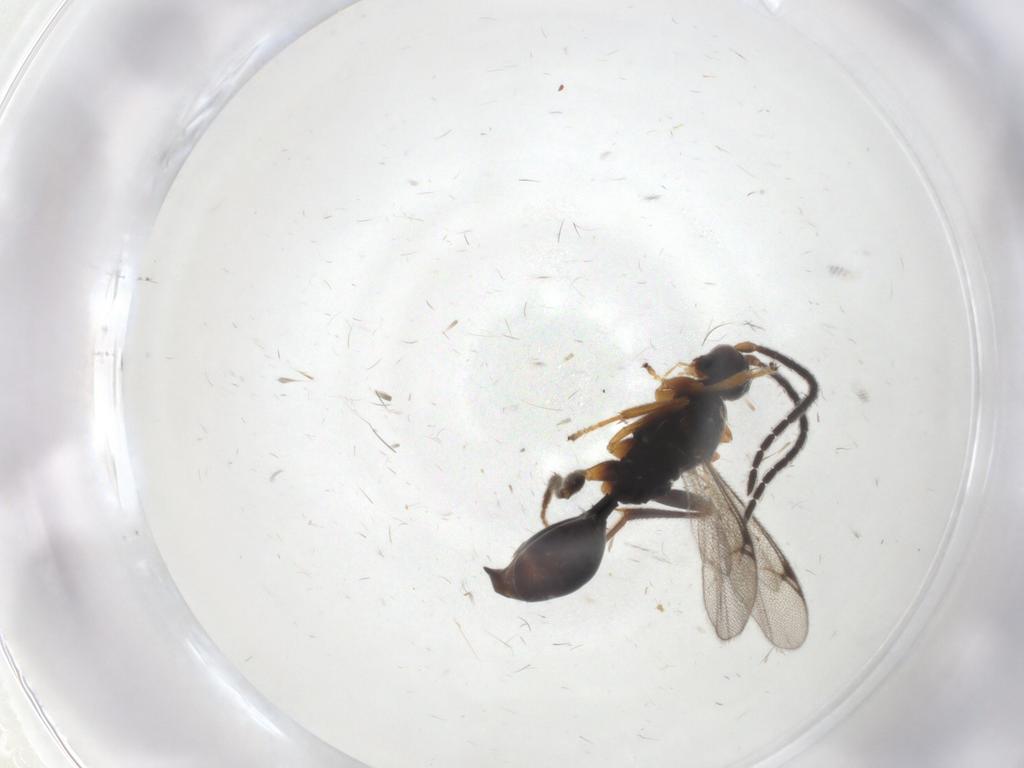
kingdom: Animalia
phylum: Arthropoda
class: Insecta
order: Hymenoptera
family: Proctotrupidae
